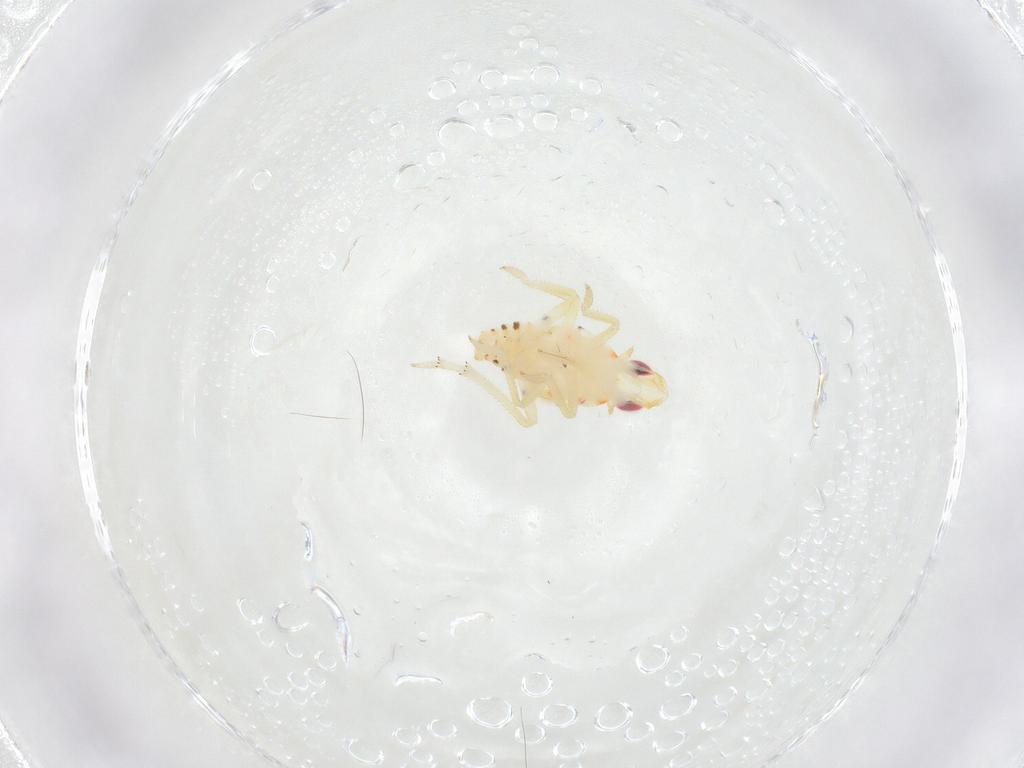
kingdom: Animalia
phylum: Arthropoda
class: Insecta
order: Hemiptera
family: Tropiduchidae
